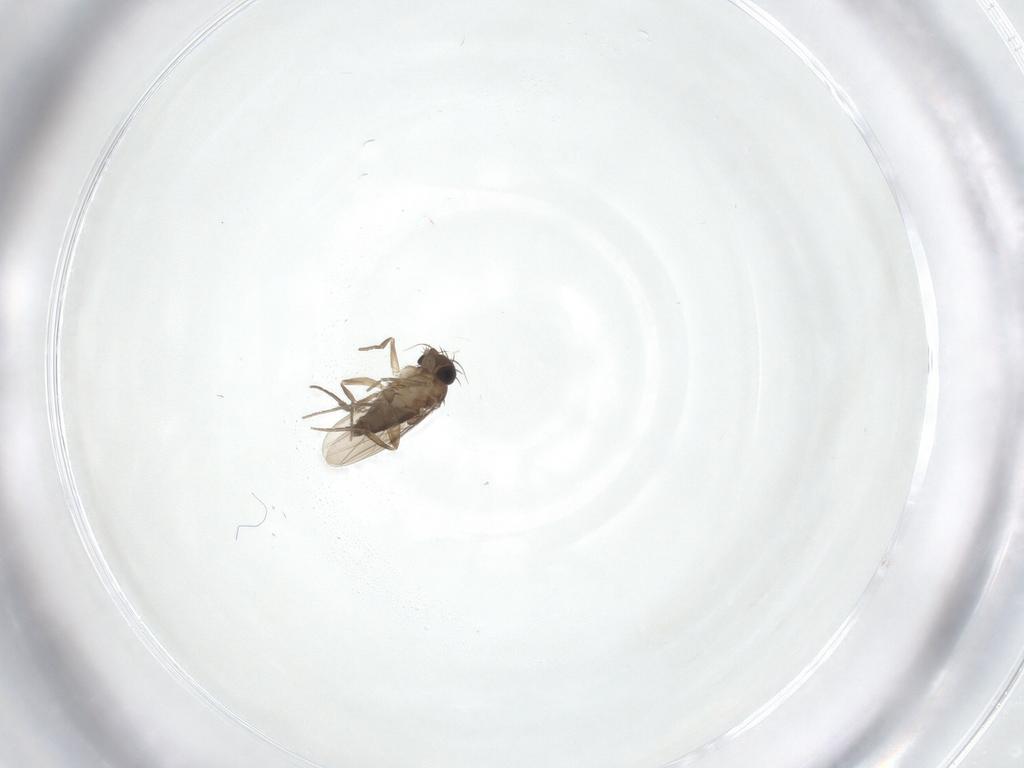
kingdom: Animalia
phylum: Arthropoda
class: Insecta
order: Diptera
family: Phoridae
